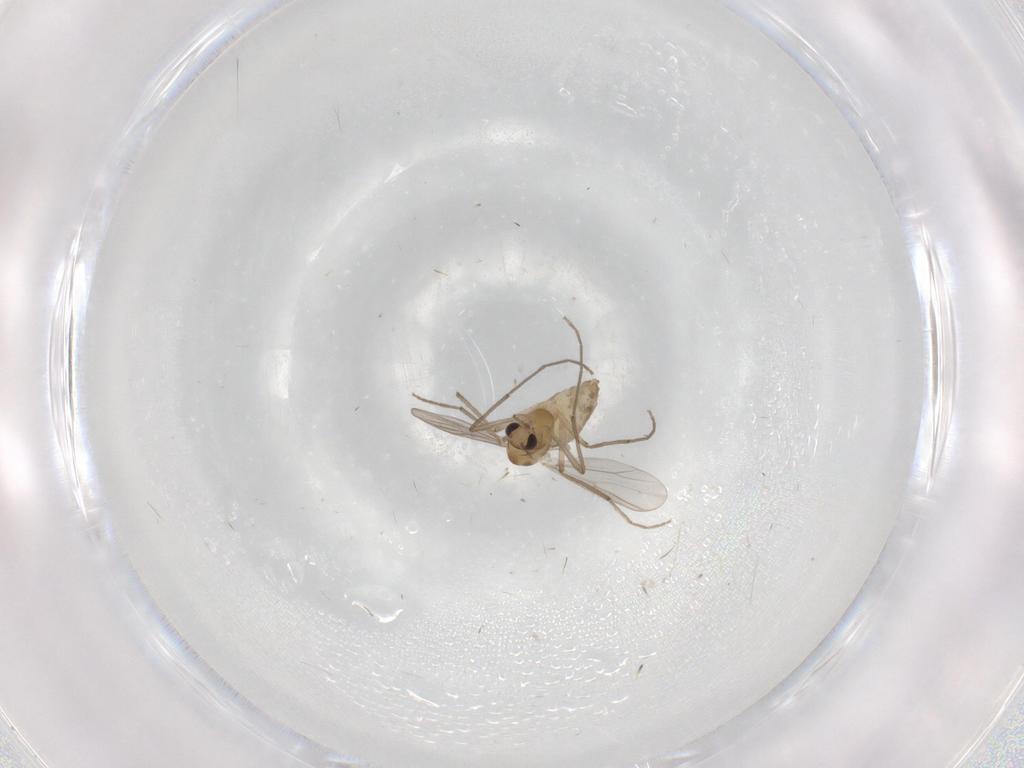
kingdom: Animalia
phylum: Arthropoda
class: Insecta
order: Diptera
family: Chironomidae
